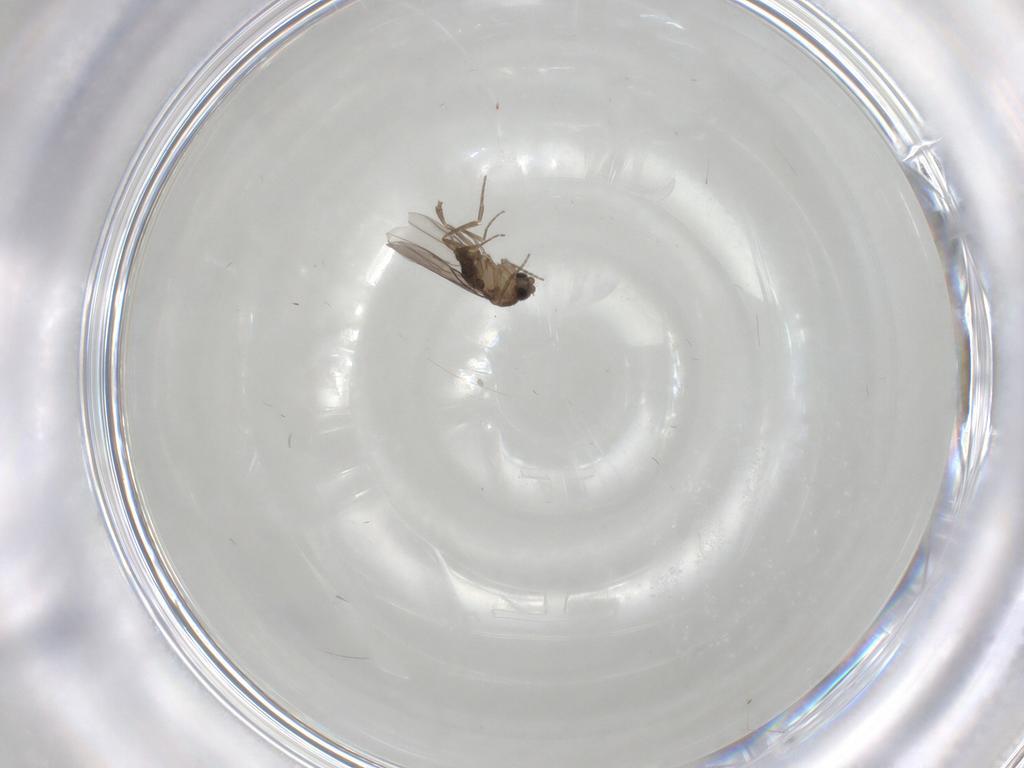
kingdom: Animalia
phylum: Arthropoda
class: Insecta
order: Diptera
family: Phoridae
